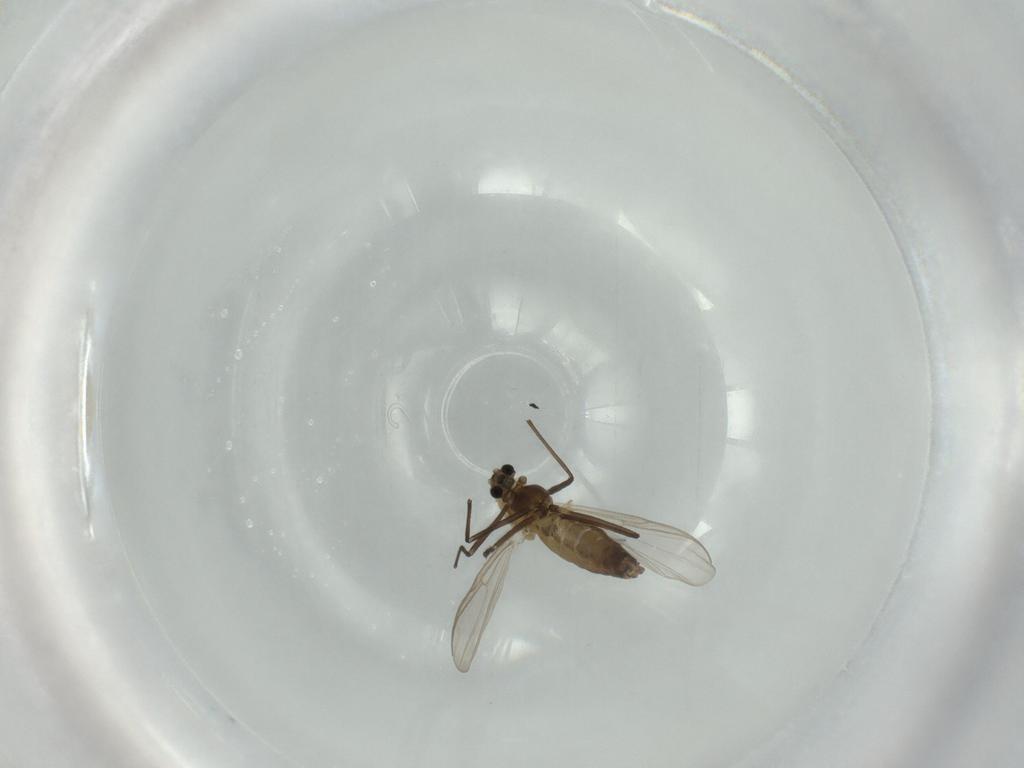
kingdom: Animalia
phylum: Arthropoda
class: Insecta
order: Diptera
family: Chironomidae
